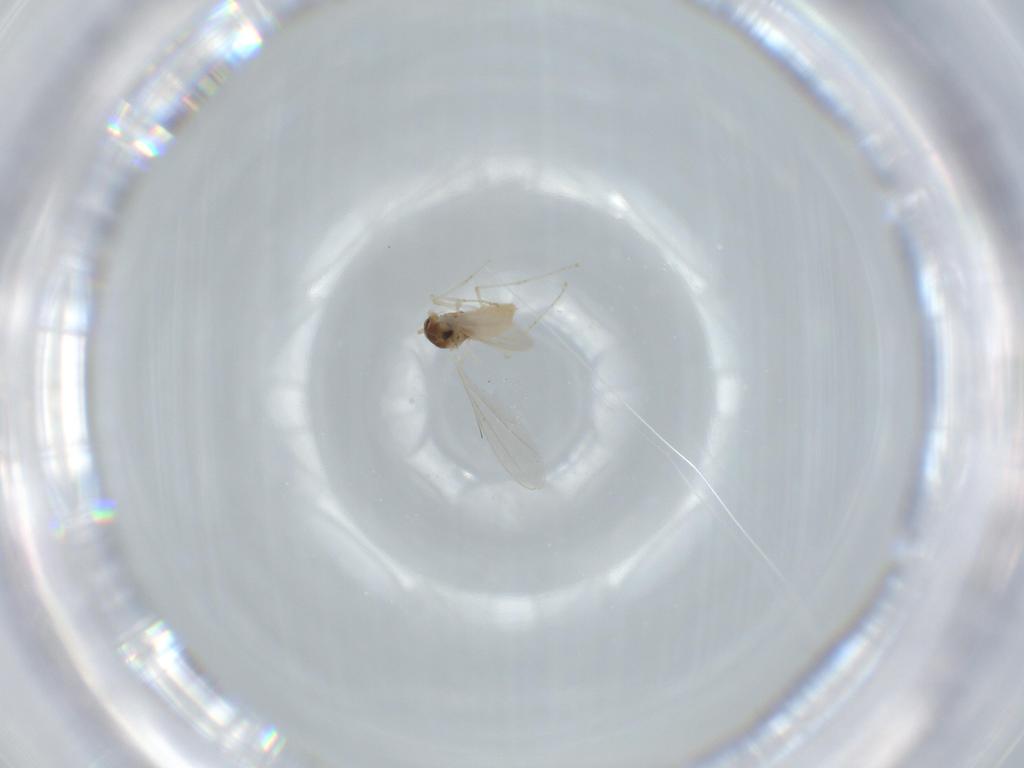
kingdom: Animalia
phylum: Arthropoda
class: Insecta
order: Diptera
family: Cecidomyiidae
